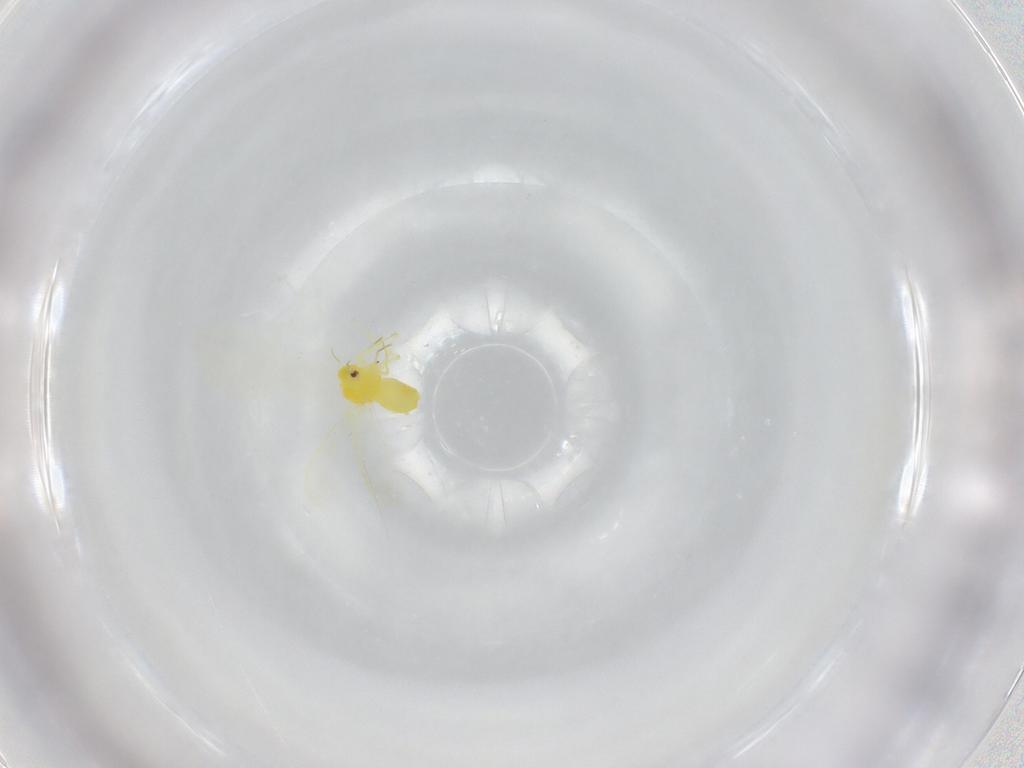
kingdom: Animalia
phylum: Arthropoda
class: Insecta
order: Hemiptera
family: Aleyrodidae
